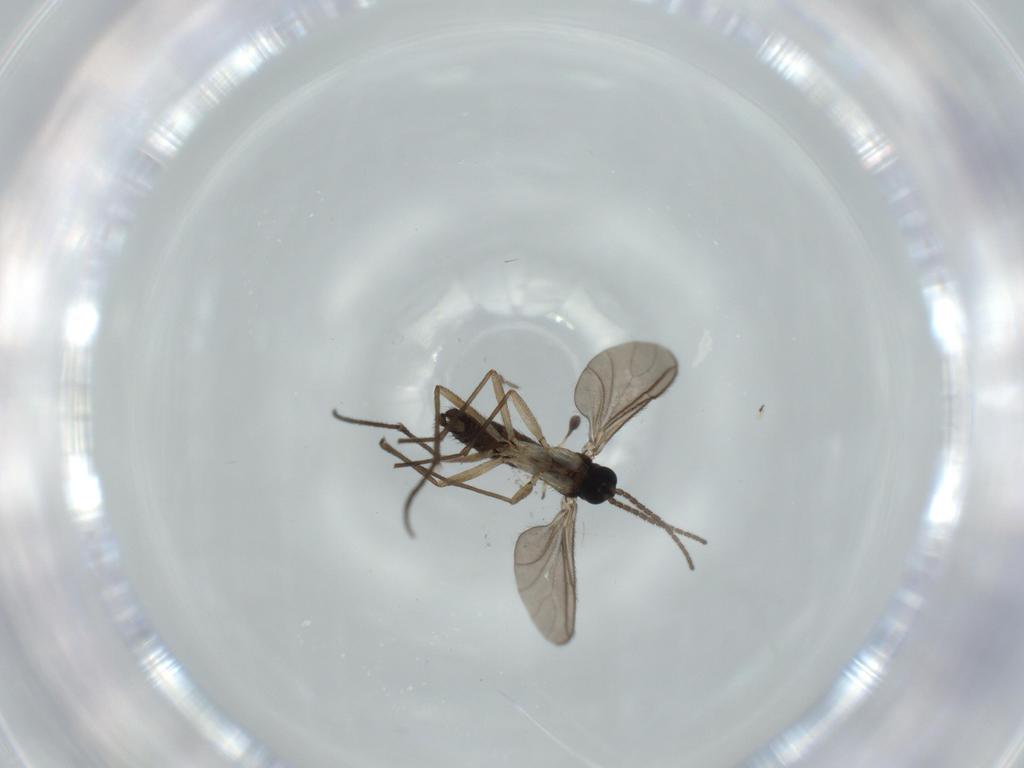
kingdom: Animalia
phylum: Arthropoda
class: Insecta
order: Diptera
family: Sciaridae
